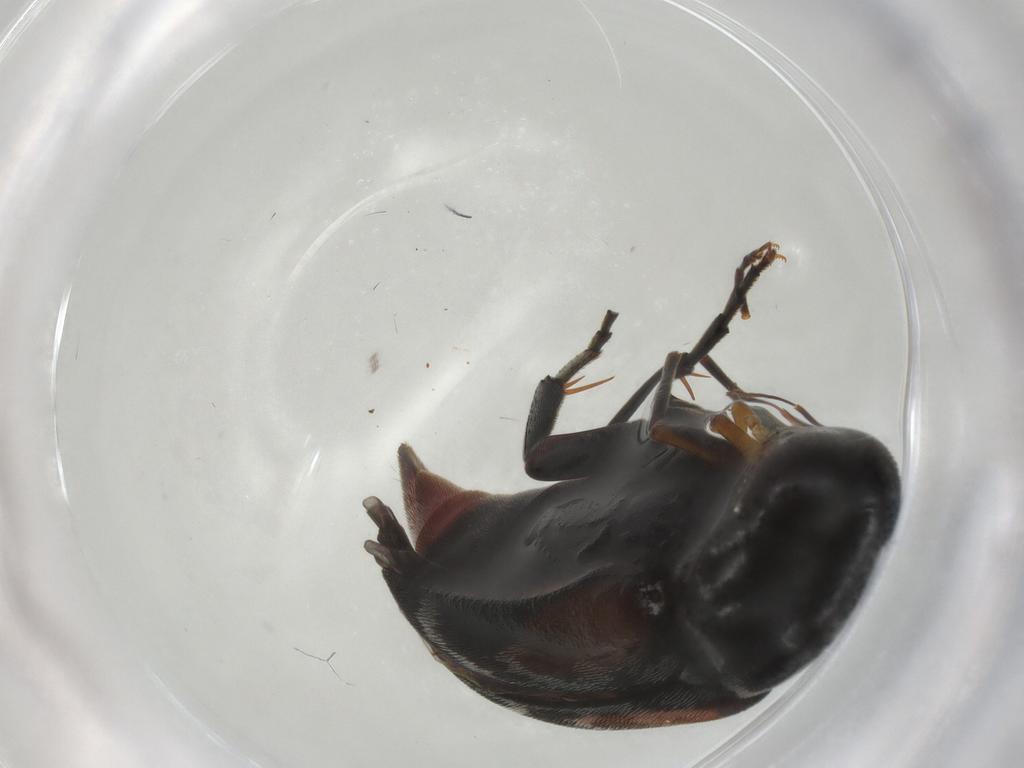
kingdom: Animalia
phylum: Arthropoda
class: Insecta
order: Coleoptera
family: Mordellidae
